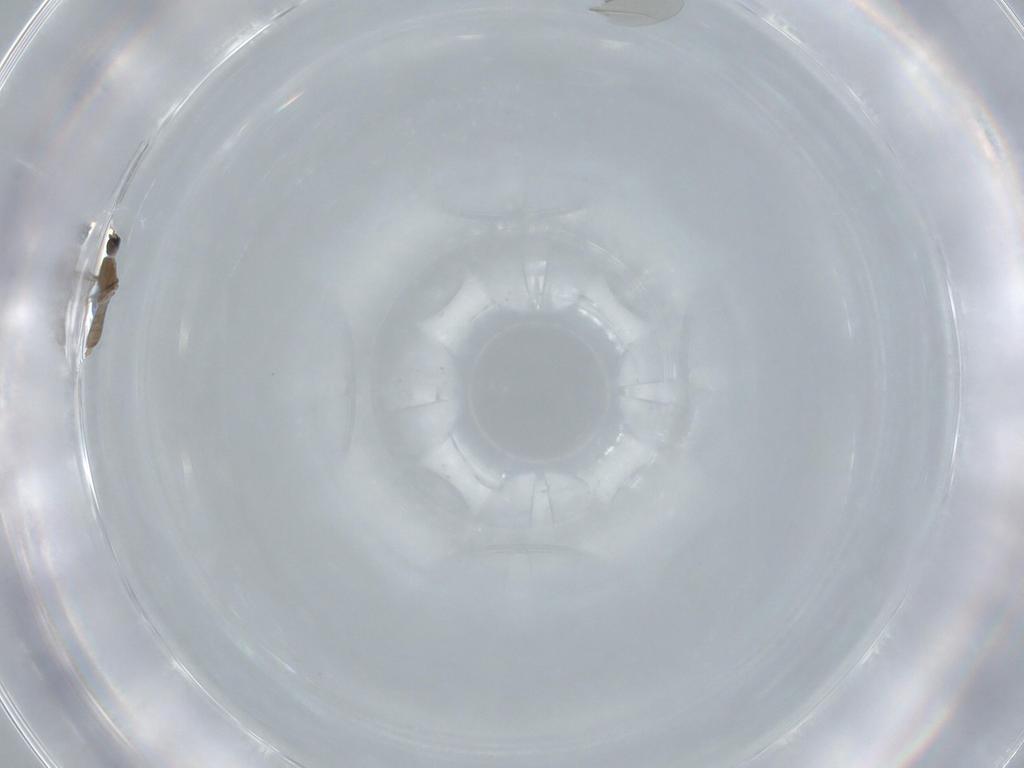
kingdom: Animalia
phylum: Arthropoda
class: Insecta
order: Diptera
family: Cecidomyiidae
